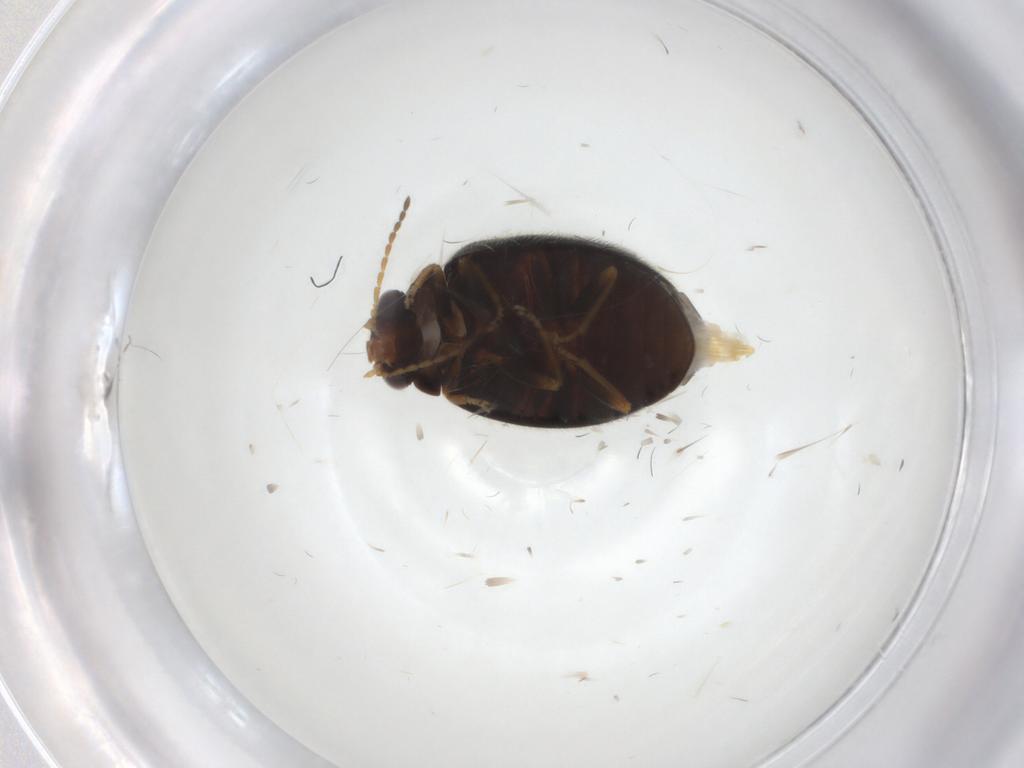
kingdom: Animalia
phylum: Arthropoda
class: Insecta
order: Coleoptera
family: Scirtidae
